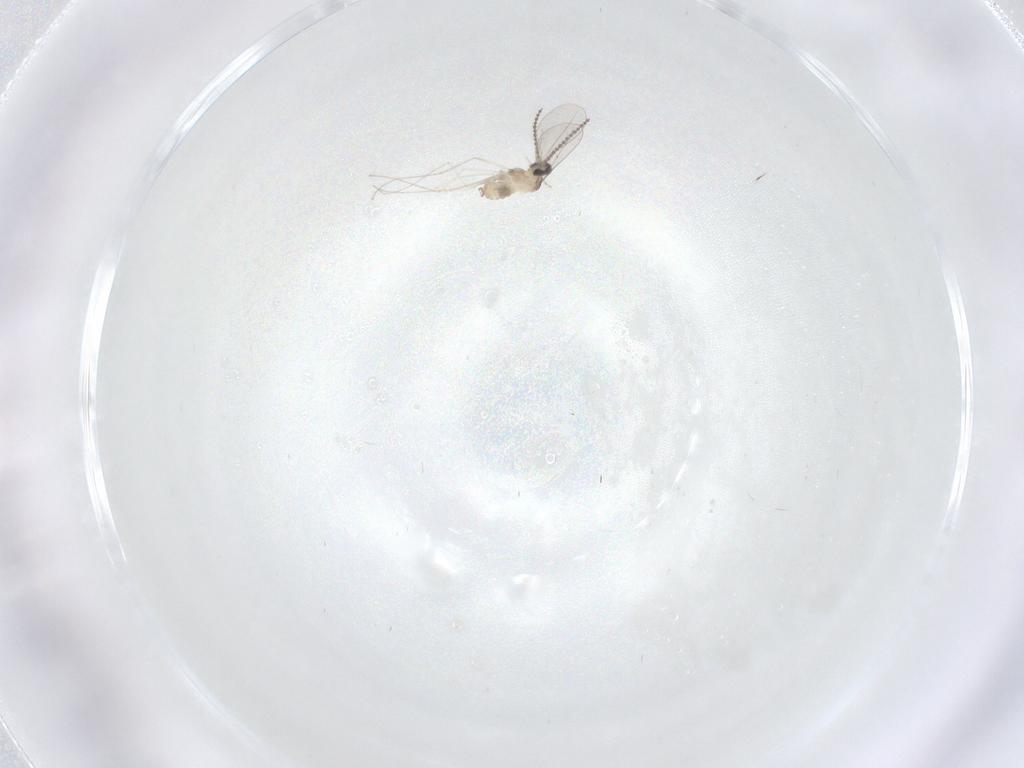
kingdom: Animalia
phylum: Arthropoda
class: Insecta
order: Diptera
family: Cecidomyiidae
